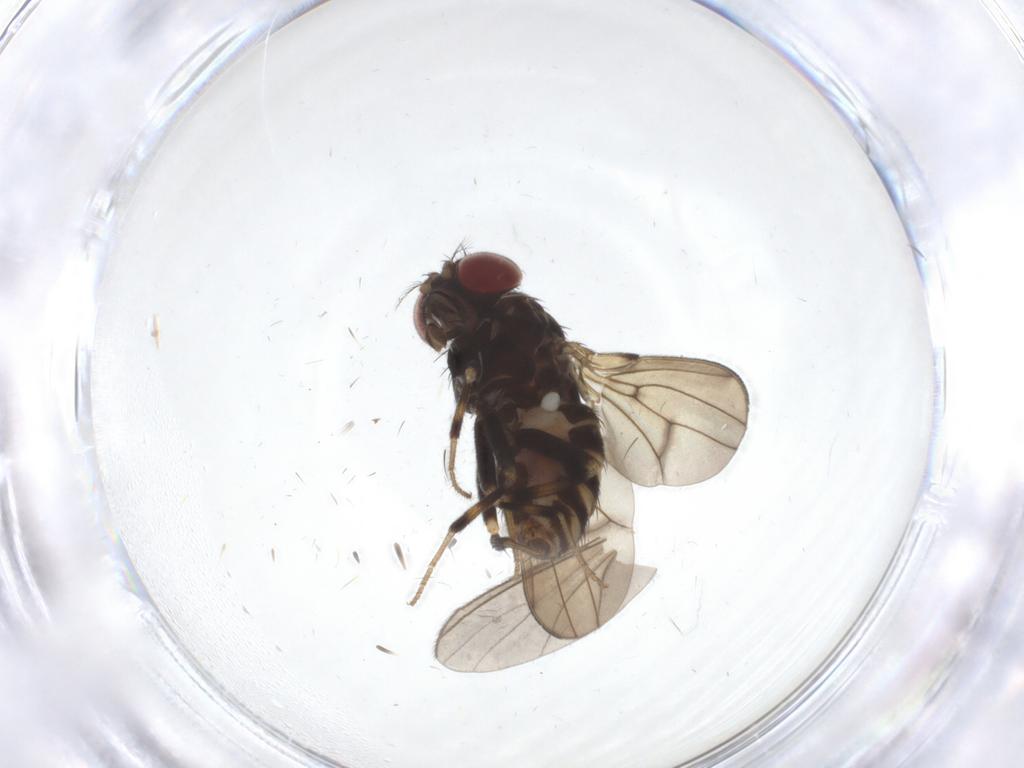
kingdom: Animalia
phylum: Arthropoda
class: Insecta
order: Diptera
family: Drosophilidae
